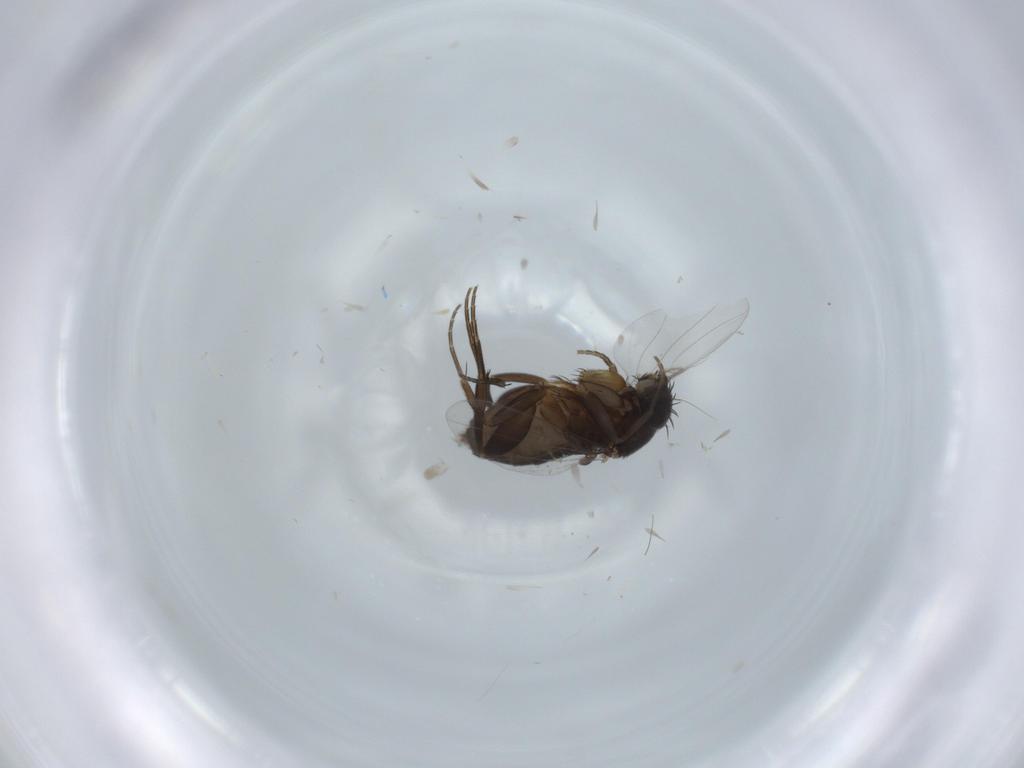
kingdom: Animalia
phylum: Arthropoda
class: Insecta
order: Diptera
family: Phoridae
